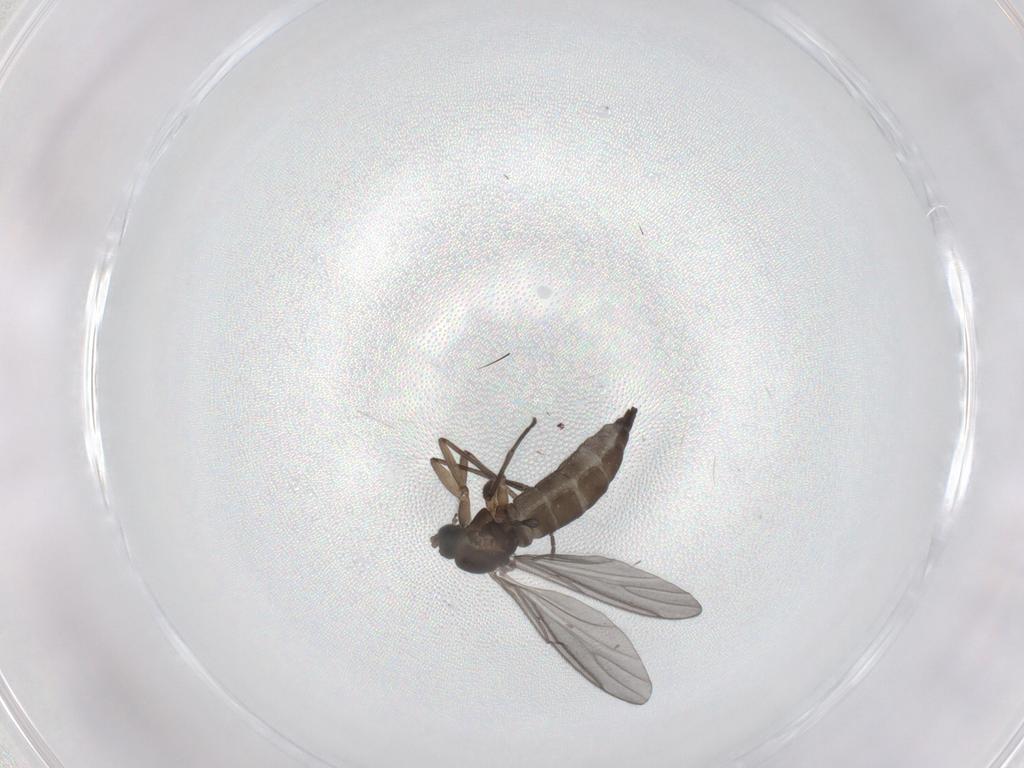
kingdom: Animalia
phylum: Arthropoda
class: Insecta
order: Diptera
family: Sciaridae
